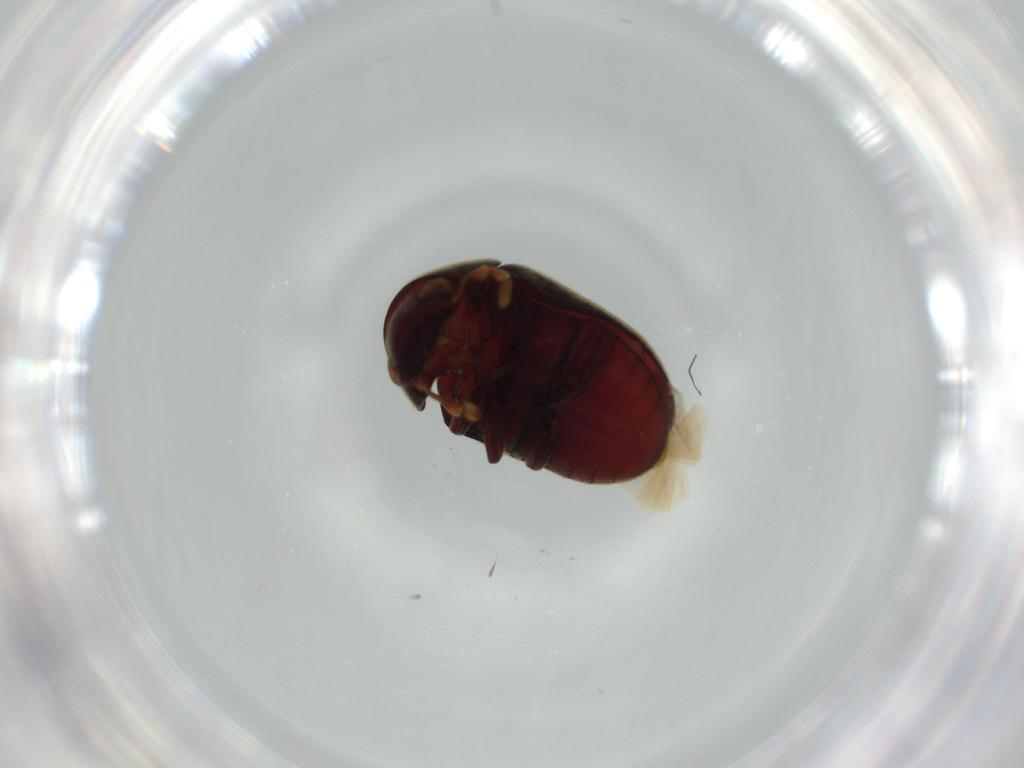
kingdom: Animalia
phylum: Arthropoda
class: Insecta
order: Coleoptera
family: Ptinidae
